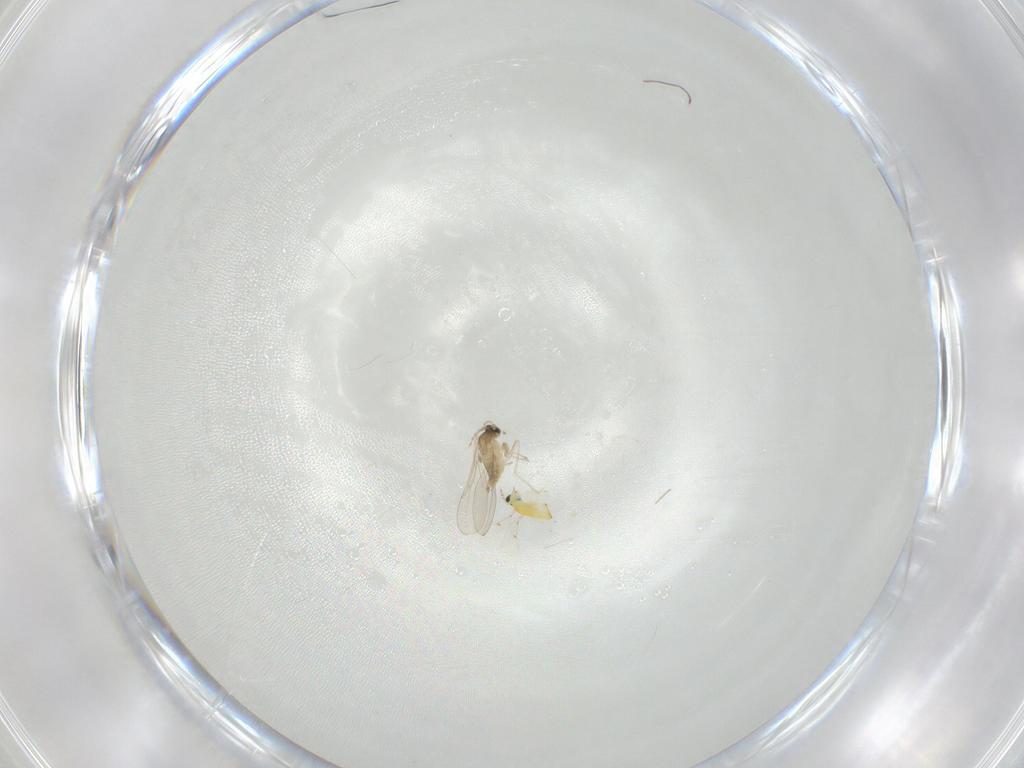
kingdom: Animalia
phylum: Arthropoda
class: Insecta
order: Diptera
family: Cecidomyiidae
